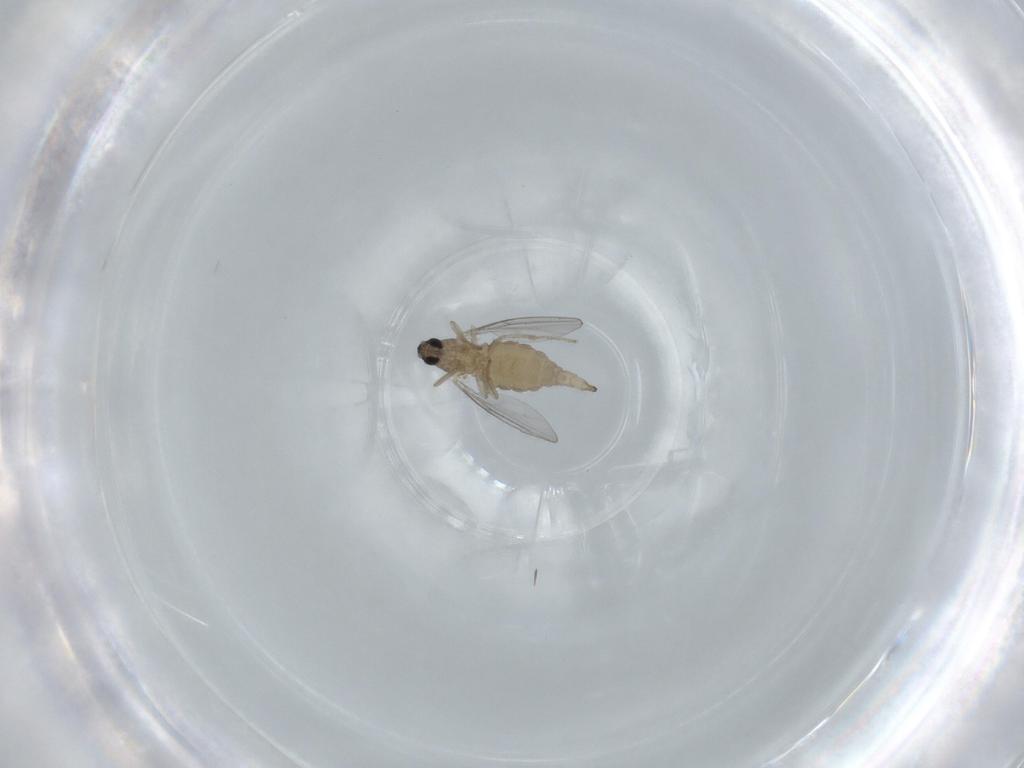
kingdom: Animalia
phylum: Arthropoda
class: Insecta
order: Diptera
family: Cecidomyiidae
